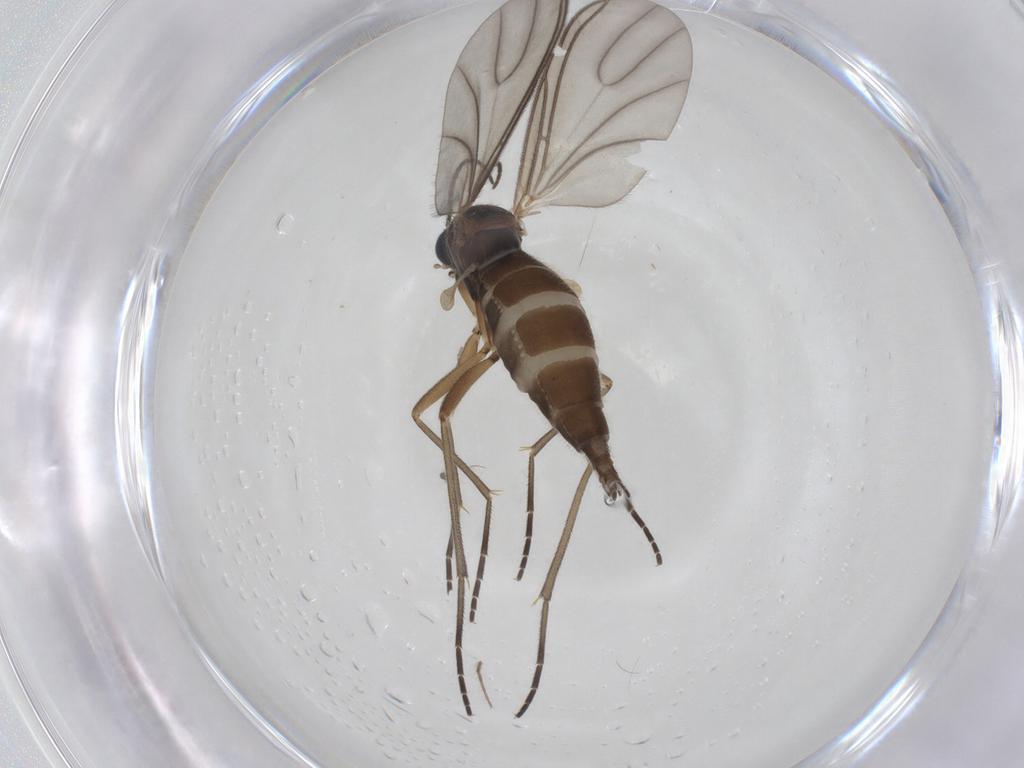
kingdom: Animalia
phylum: Arthropoda
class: Insecta
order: Diptera
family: Sciaridae
